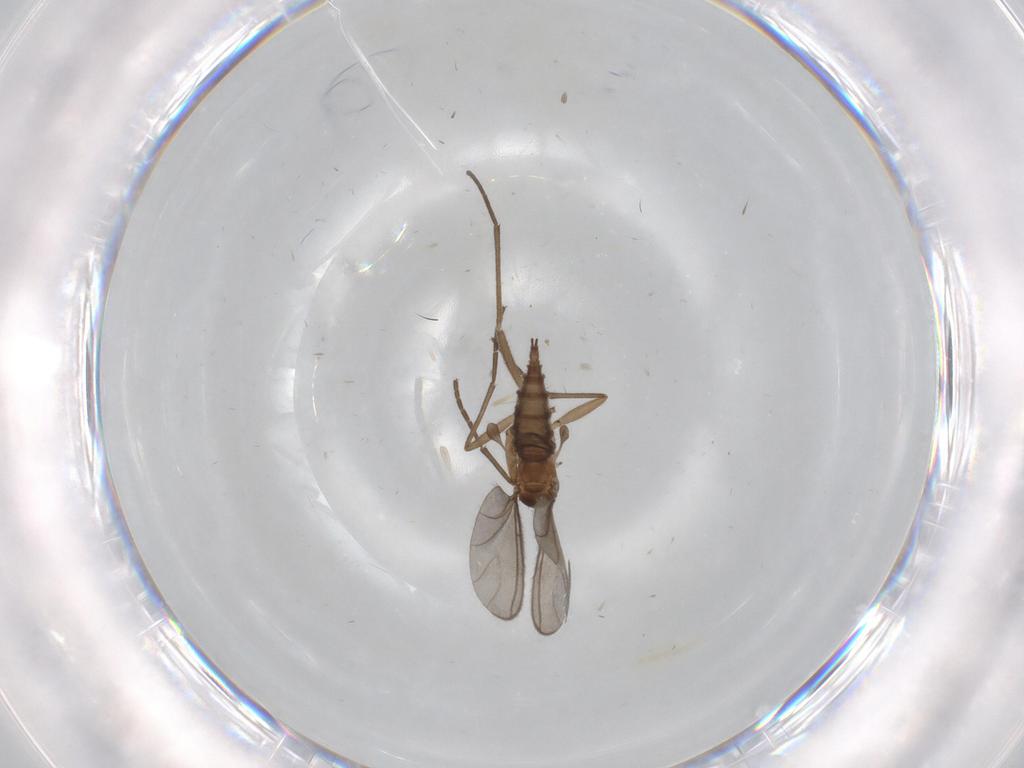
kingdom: Animalia
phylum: Arthropoda
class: Insecta
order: Diptera
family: Sciaridae
